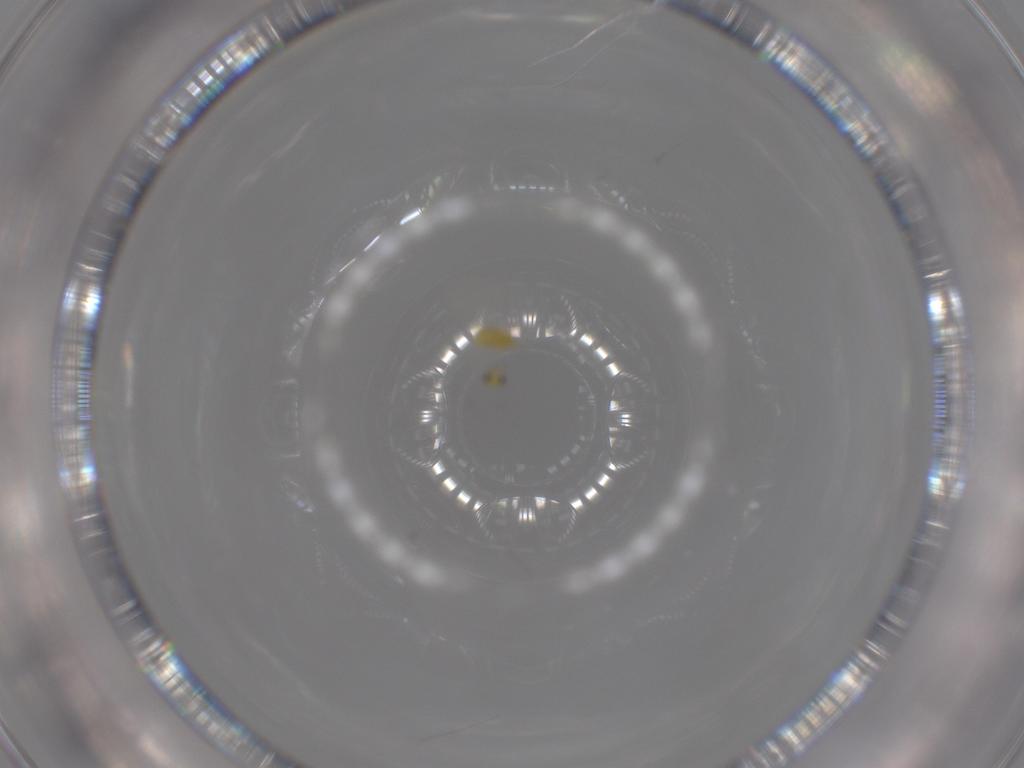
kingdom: Animalia
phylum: Arthropoda
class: Insecta
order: Hymenoptera
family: Trichogrammatidae
